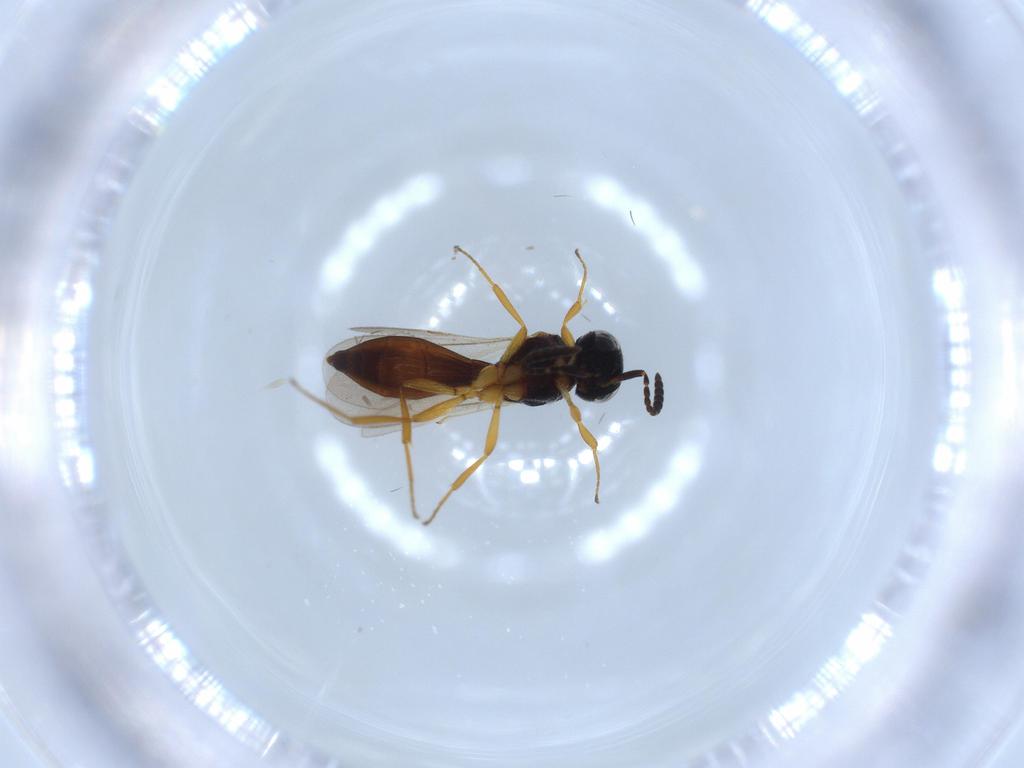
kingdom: Animalia
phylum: Arthropoda
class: Insecta
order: Hymenoptera
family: Scelionidae
